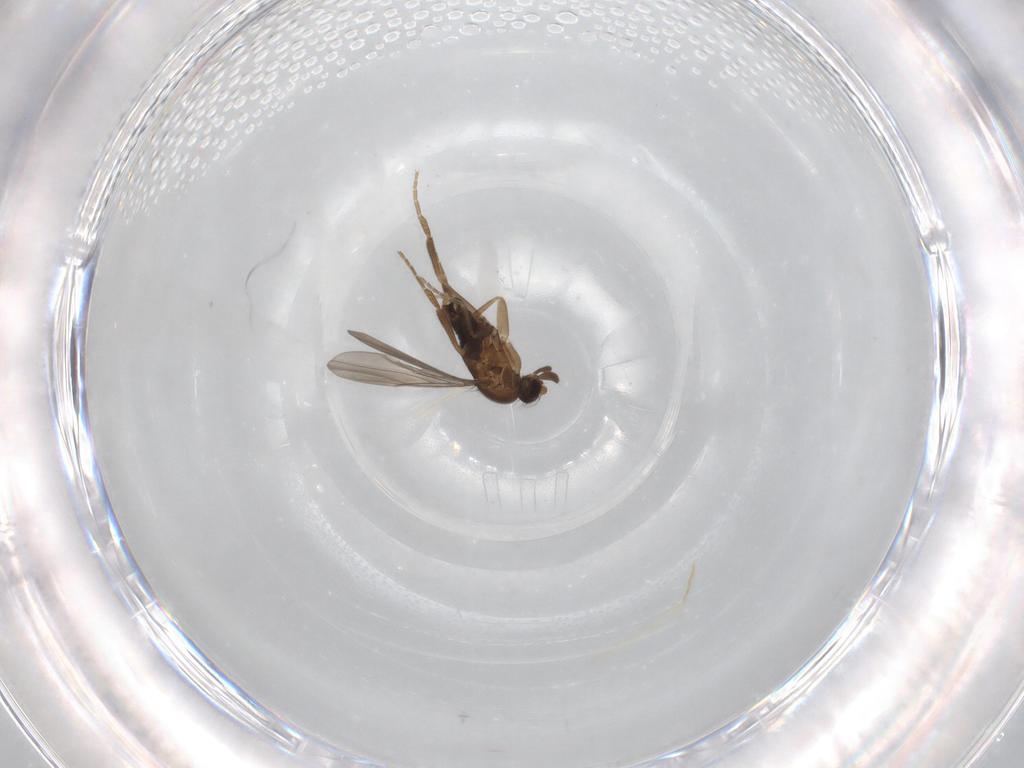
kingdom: Animalia
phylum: Arthropoda
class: Insecta
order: Diptera
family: Phoridae
